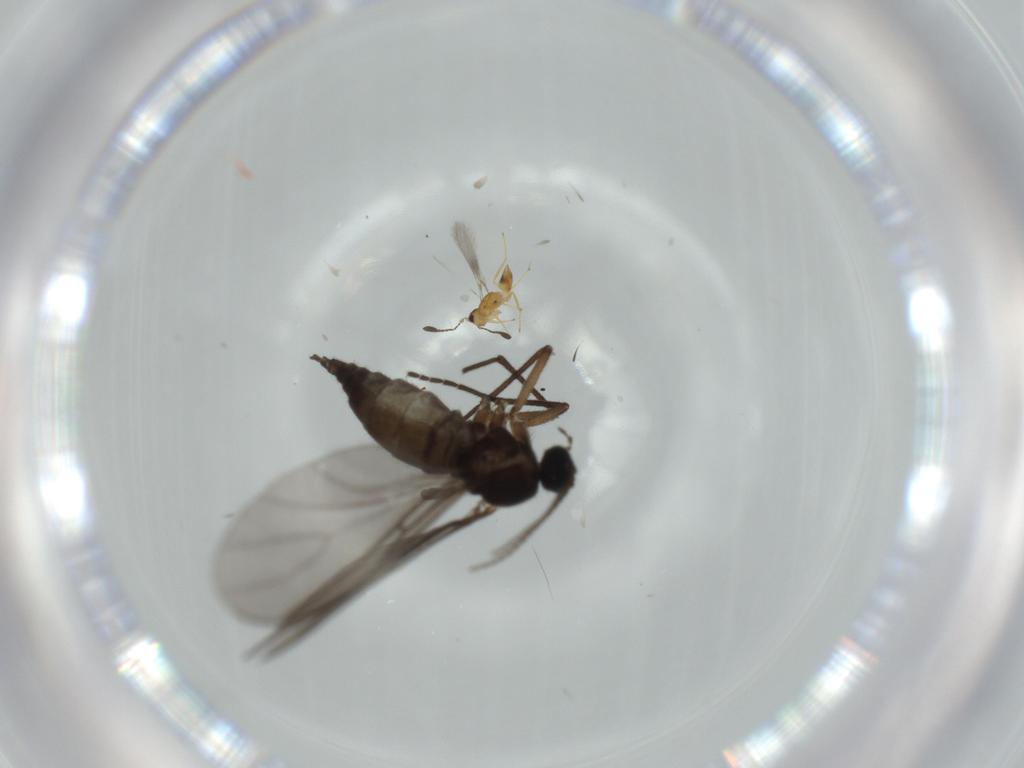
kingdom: Animalia
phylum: Arthropoda
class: Insecta
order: Diptera
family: Sciaridae
